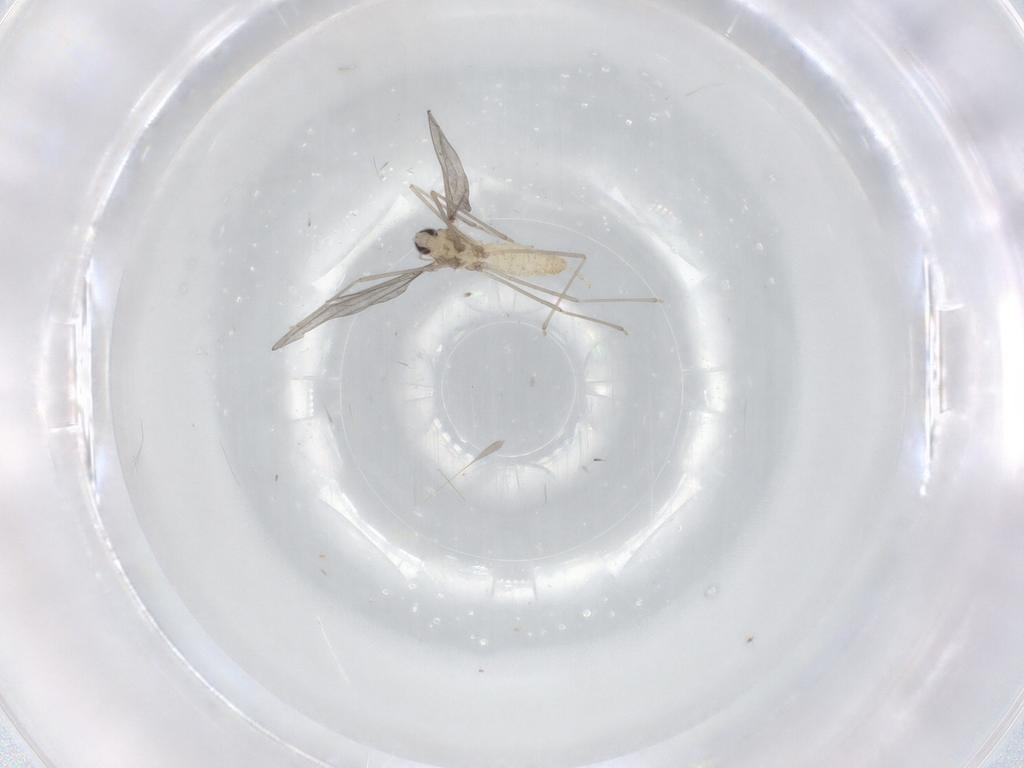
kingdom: Animalia
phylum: Arthropoda
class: Insecta
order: Diptera
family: Cecidomyiidae
